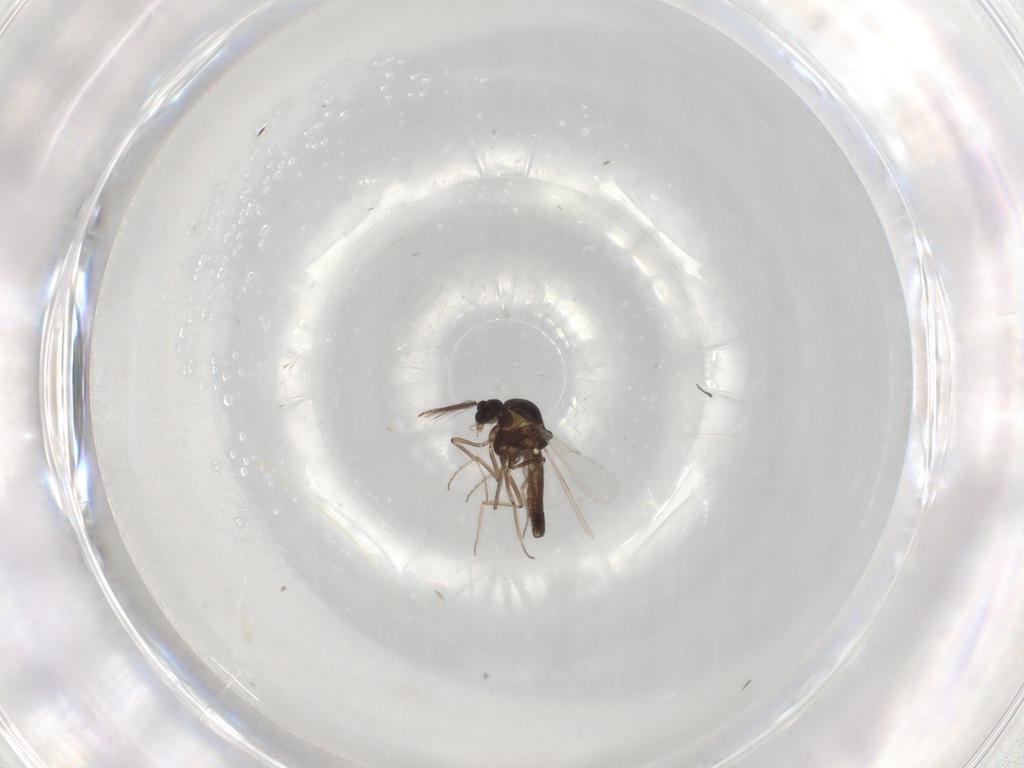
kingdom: Animalia
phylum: Arthropoda
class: Insecta
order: Diptera
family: Ceratopogonidae
